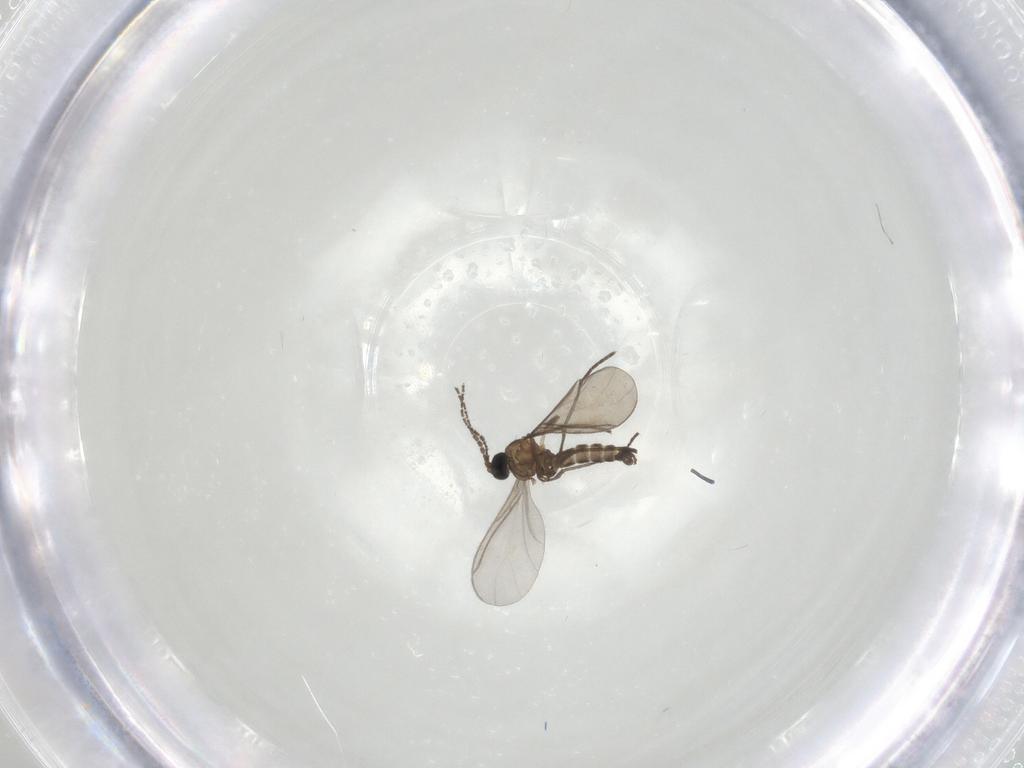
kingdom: Animalia
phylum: Arthropoda
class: Insecta
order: Diptera
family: Sciaridae
